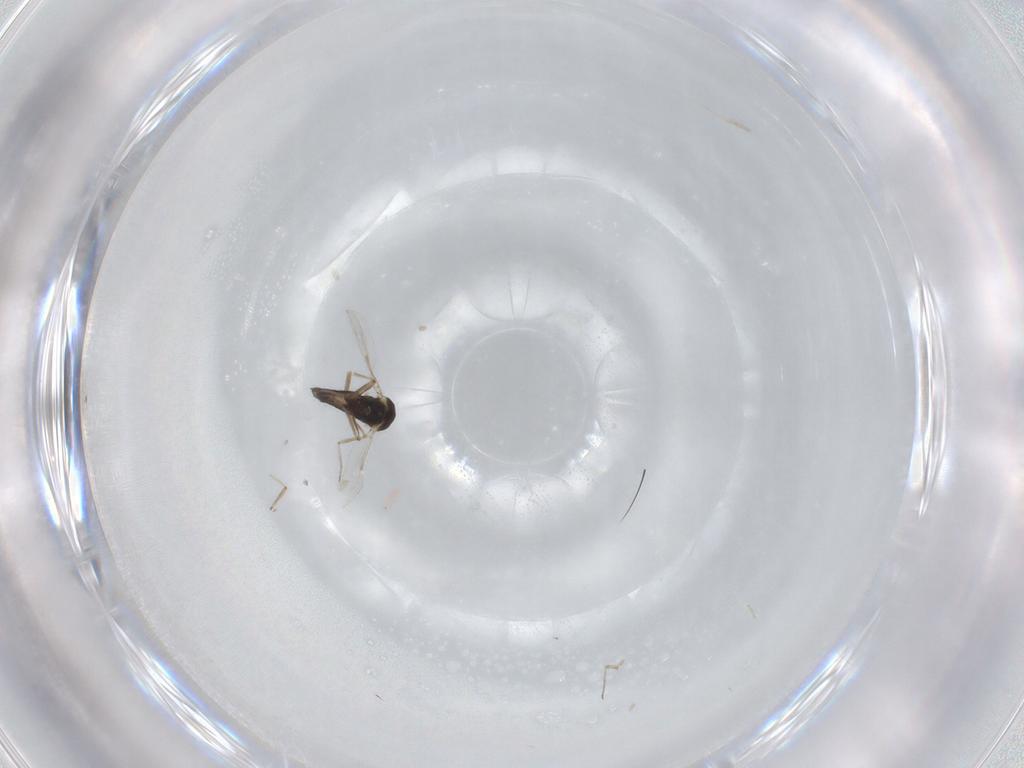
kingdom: Animalia
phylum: Arthropoda
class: Insecta
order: Diptera
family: Ceratopogonidae
